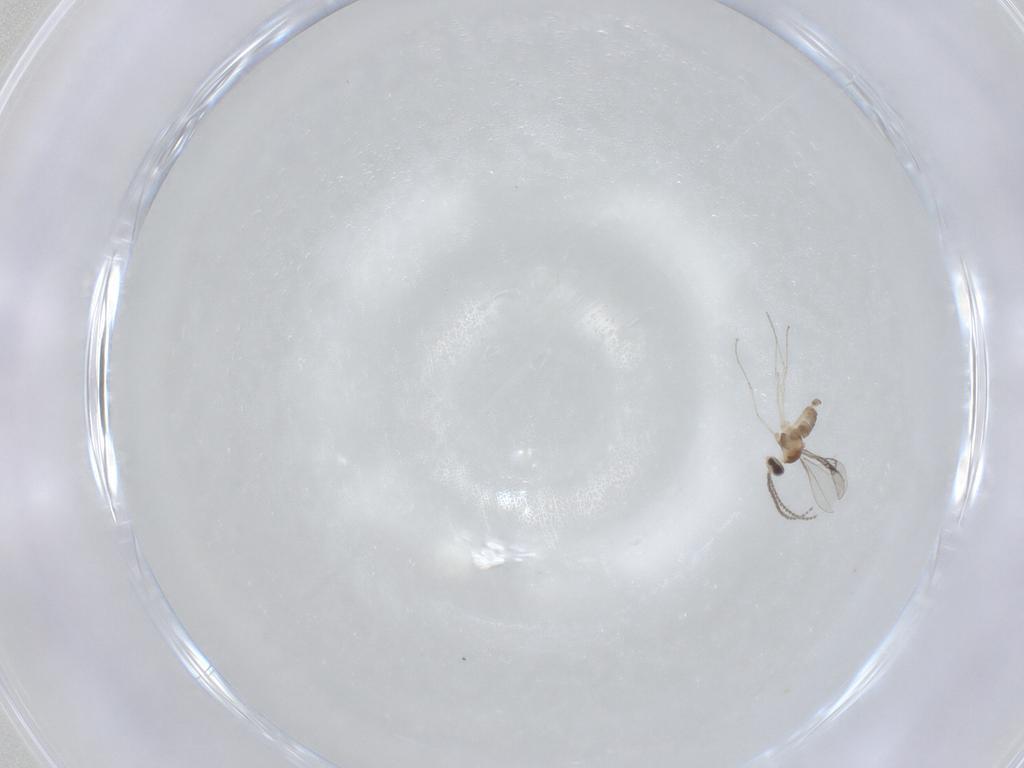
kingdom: Animalia
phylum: Arthropoda
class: Insecta
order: Diptera
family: Cecidomyiidae
